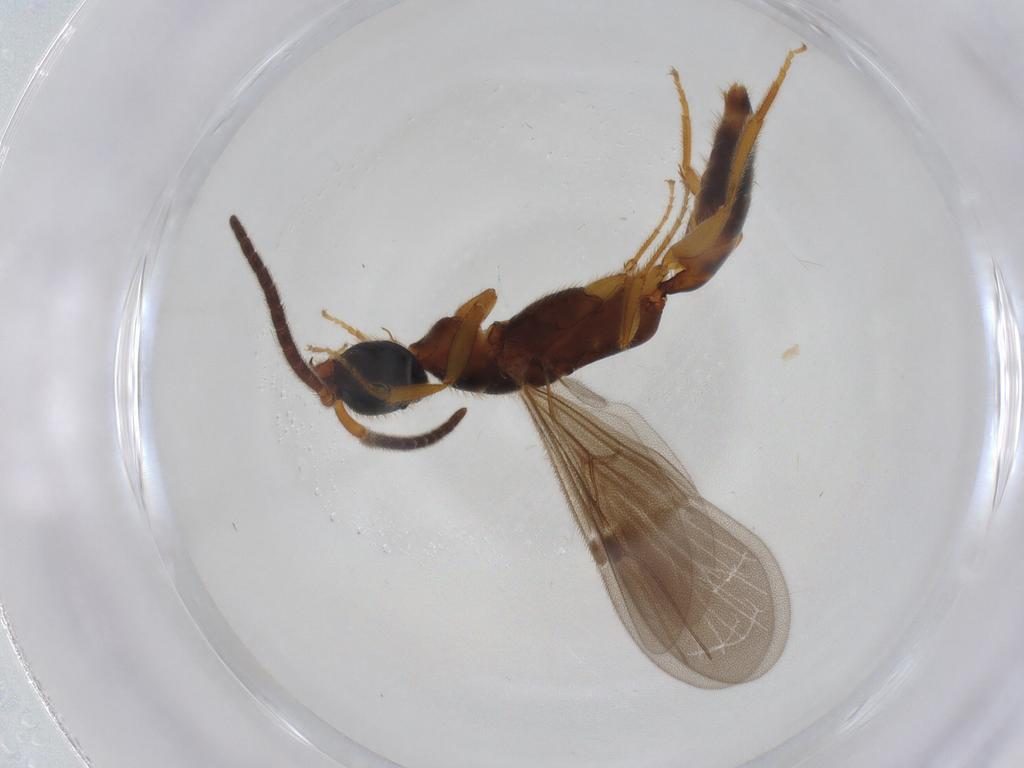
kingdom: Animalia
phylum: Arthropoda
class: Insecta
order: Hymenoptera
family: Bethylidae
